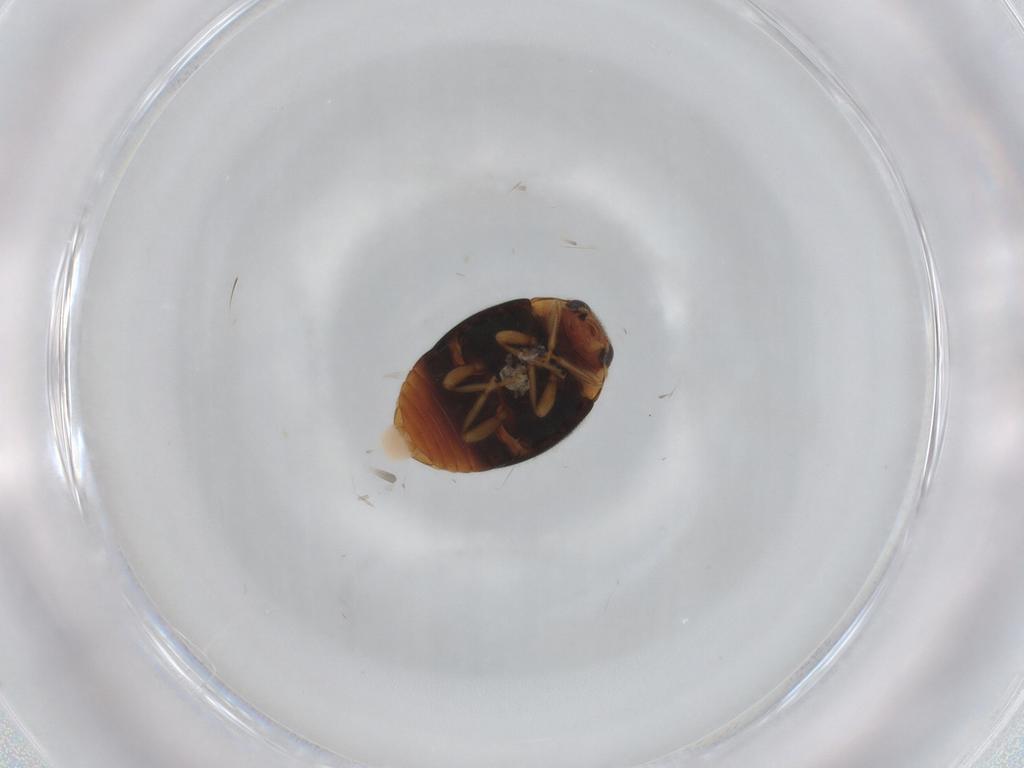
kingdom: Animalia
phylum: Arthropoda
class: Insecta
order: Coleoptera
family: Coccinellidae
